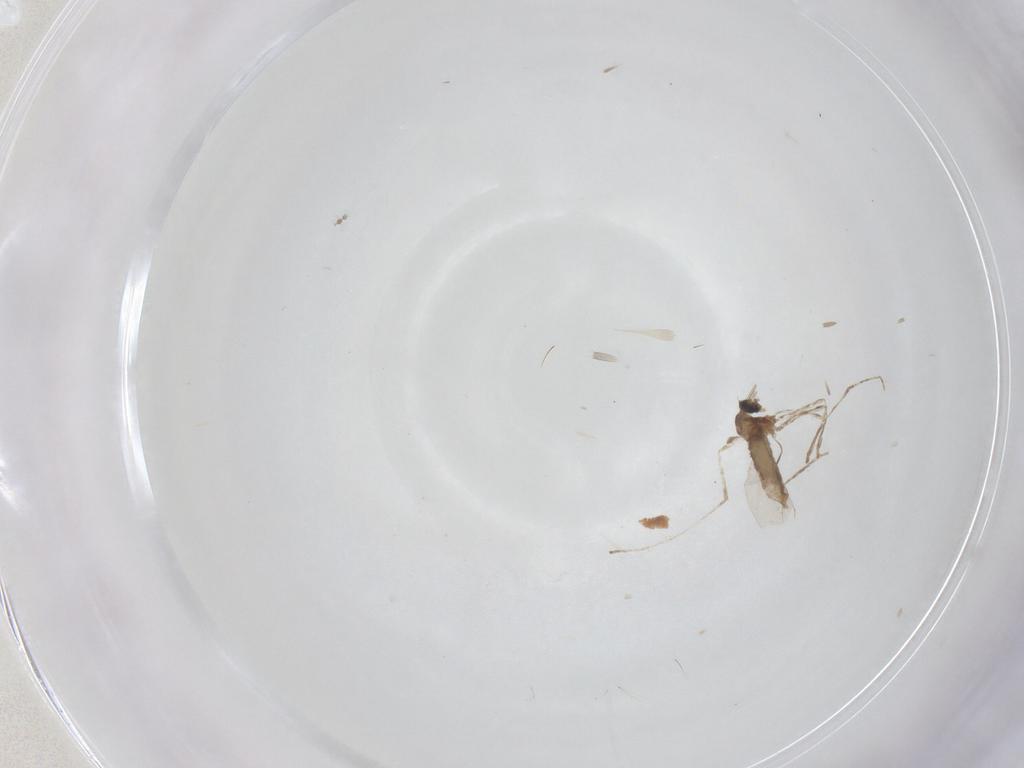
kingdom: Animalia
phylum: Arthropoda
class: Insecta
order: Diptera
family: Cecidomyiidae
